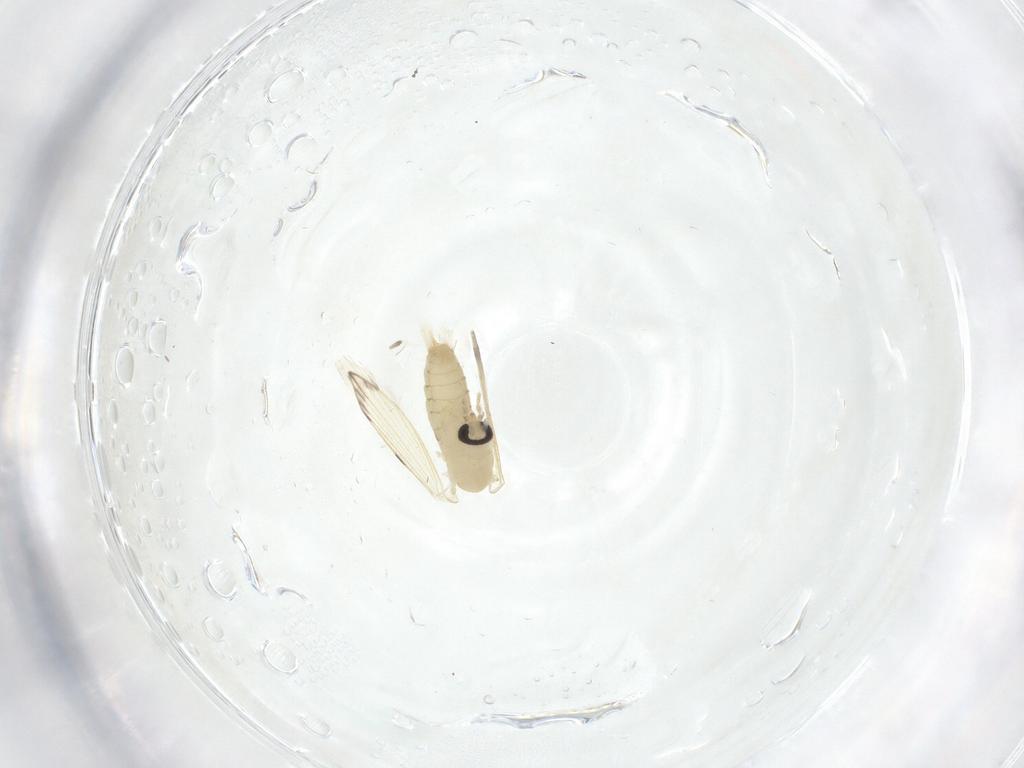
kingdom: Animalia
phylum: Arthropoda
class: Insecta
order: Diptera
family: Psychodidae
